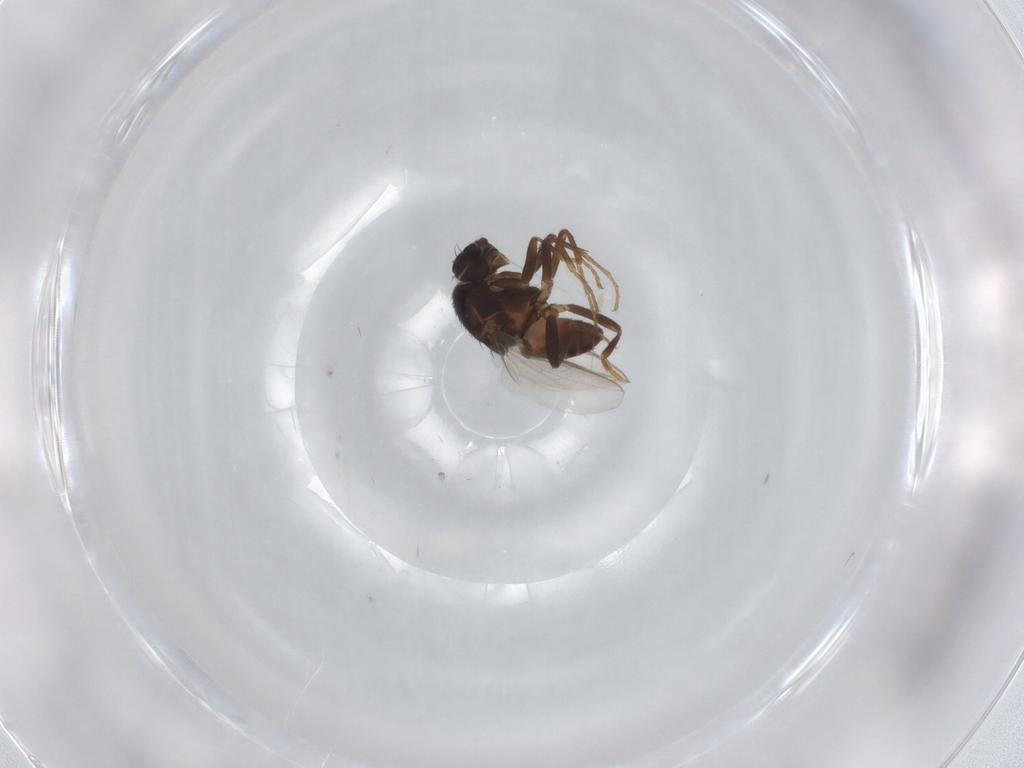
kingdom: Animalia
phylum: Arthropoda
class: Insecta
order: Diptera
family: Sphaeroceridae
